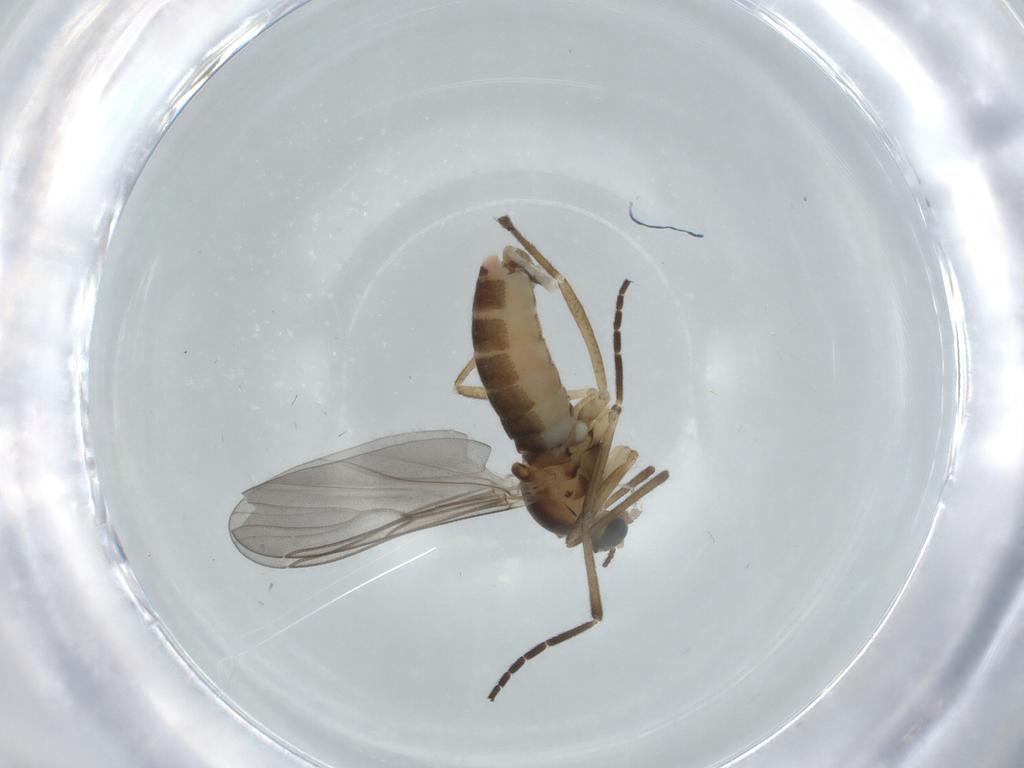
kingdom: Animalia
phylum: Arthropoda
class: Insecta
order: Diptera
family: Cecidomyiidae
